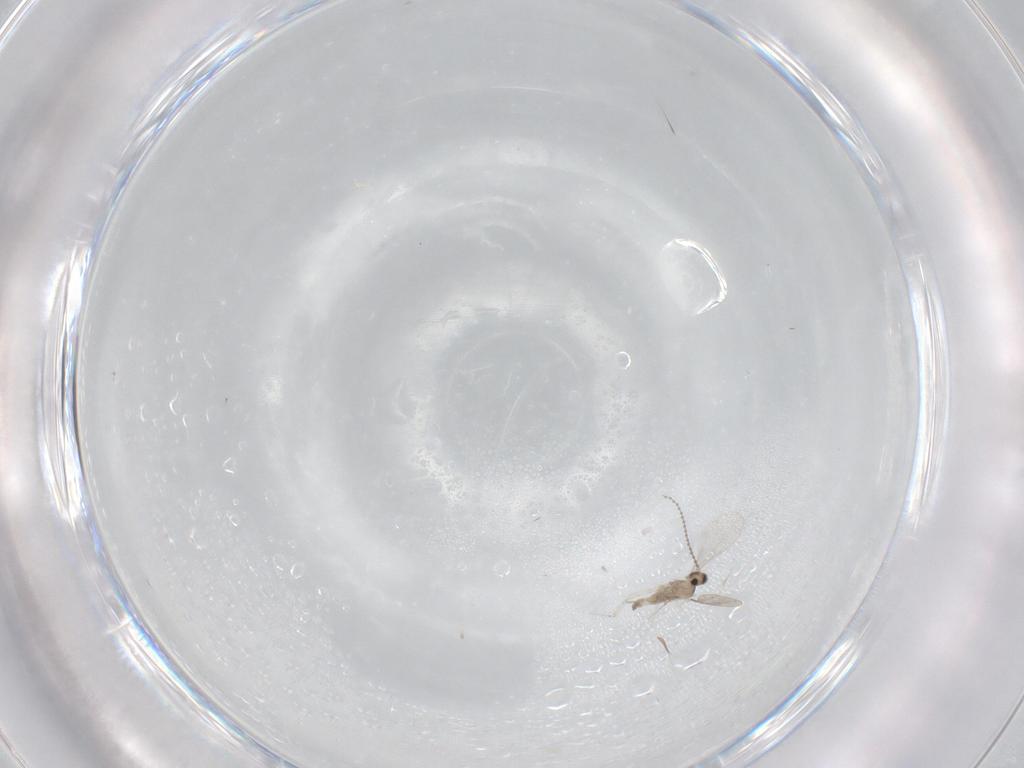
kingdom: Animalia
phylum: Arthropoda
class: Insecta
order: Diptera
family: Cecidomyiidae
